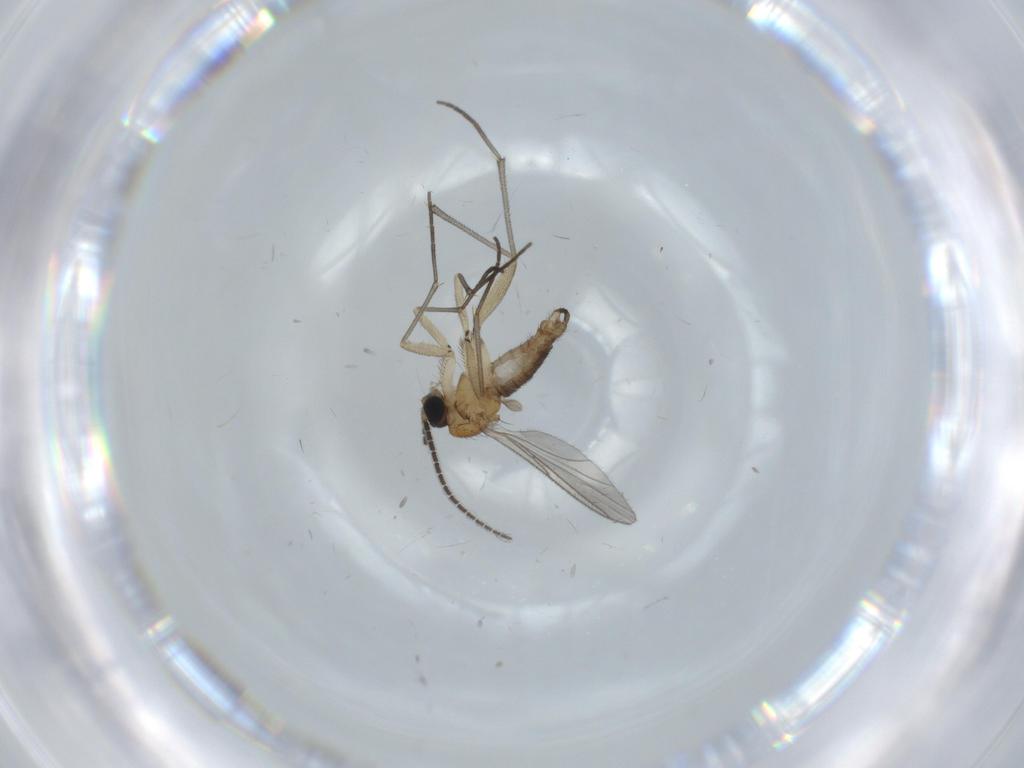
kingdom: Animalia
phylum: Arthropoda
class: Insecta
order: Diptera
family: Sciaridae
